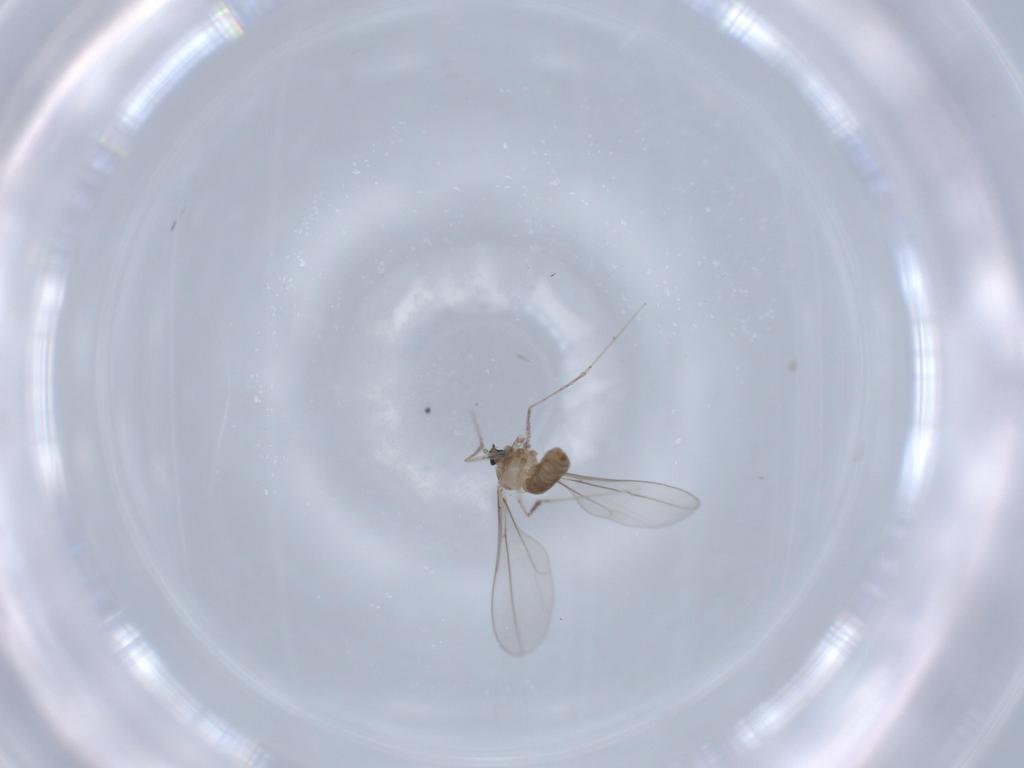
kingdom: Animalia
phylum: Arthropoda
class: Insecta
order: Diptera
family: Cecidomyiidae
